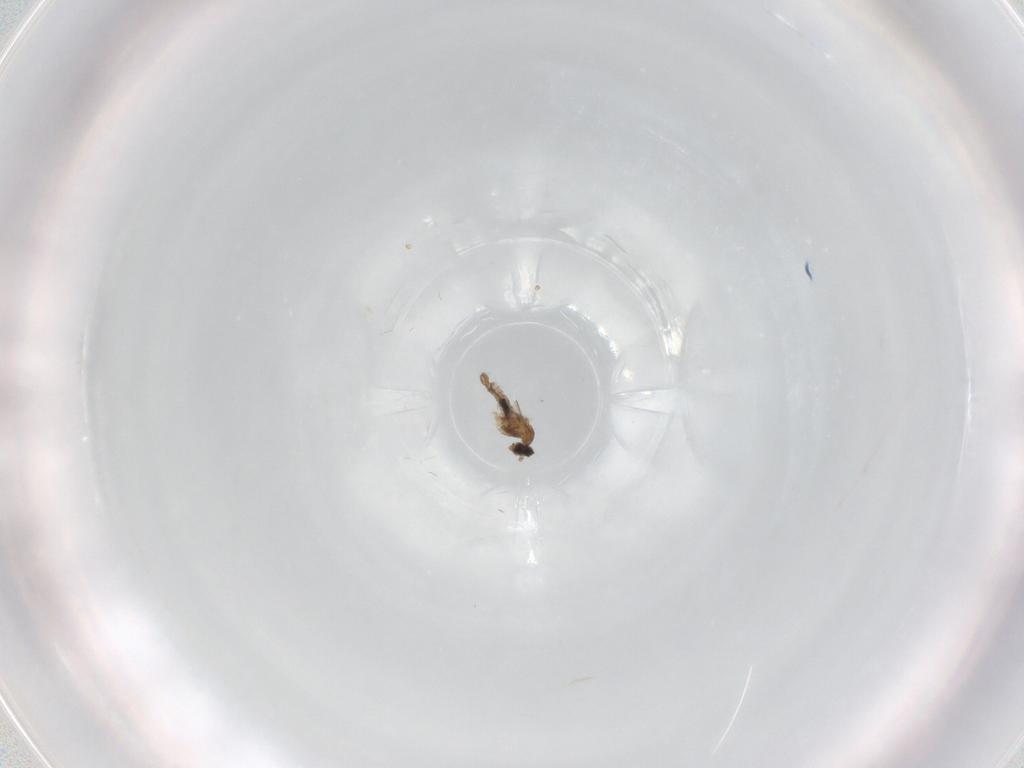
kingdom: Animalia
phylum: Arthropoda
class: Insecta
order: Diptera
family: Cecidomyiidae
